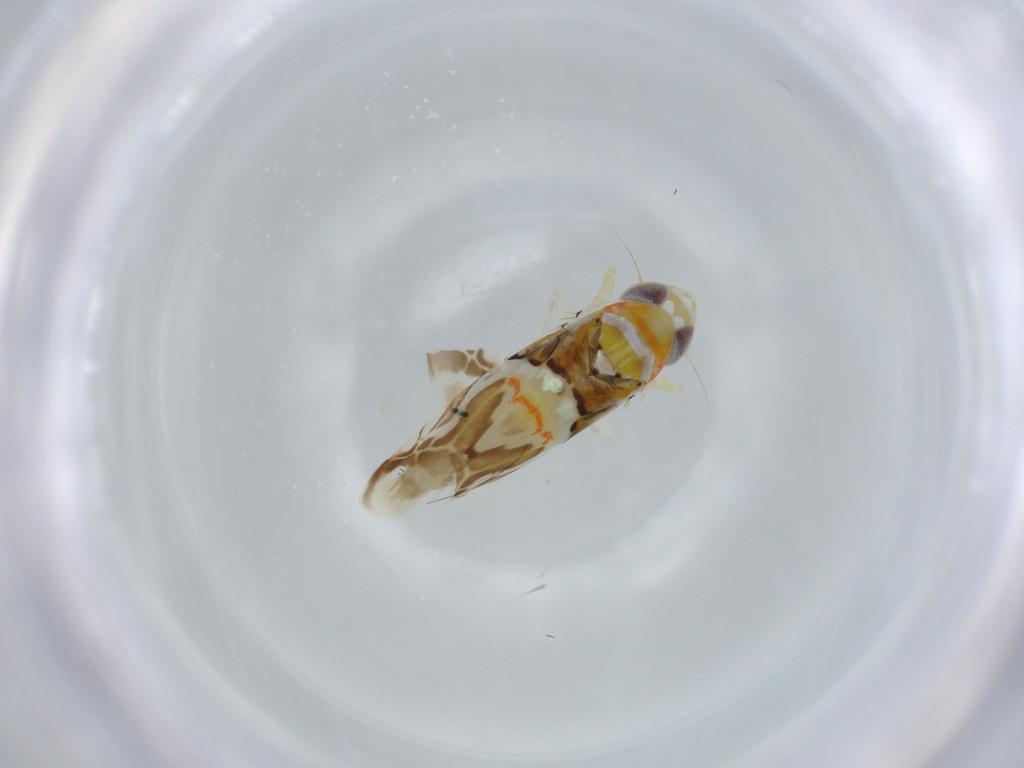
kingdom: Animalia
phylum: Arthropoda
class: Insecta
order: Hemiptera
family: Cicadellidae
